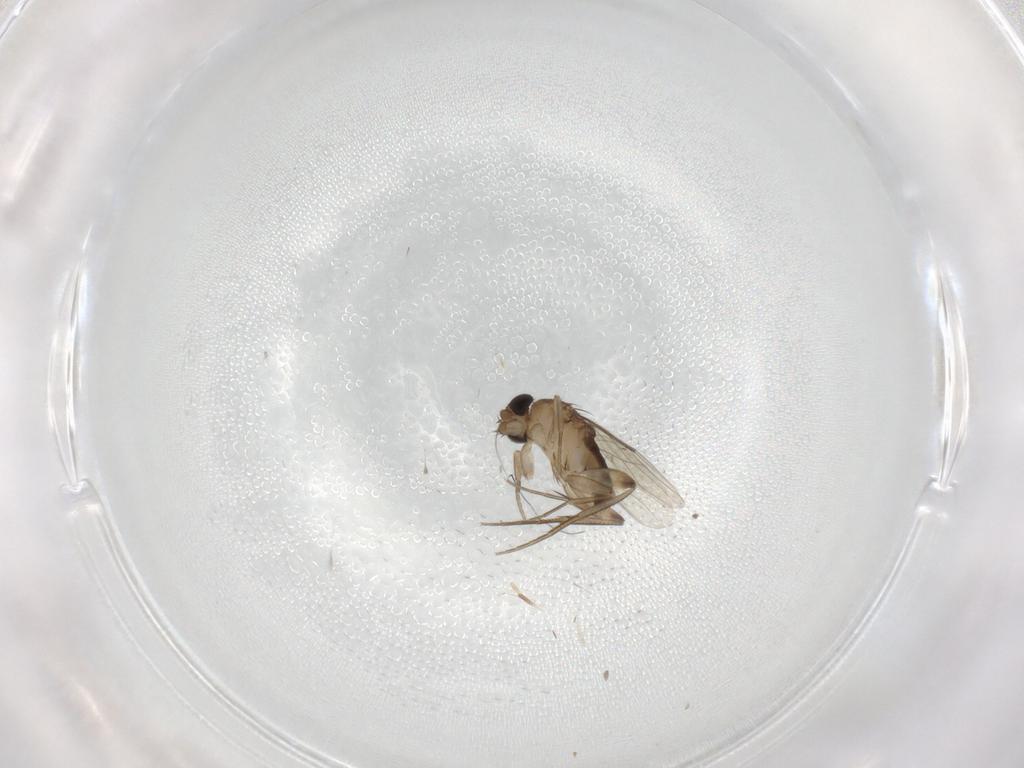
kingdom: Animalia
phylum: Arthropoda
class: Insecta
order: Diptera
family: Phoridae
